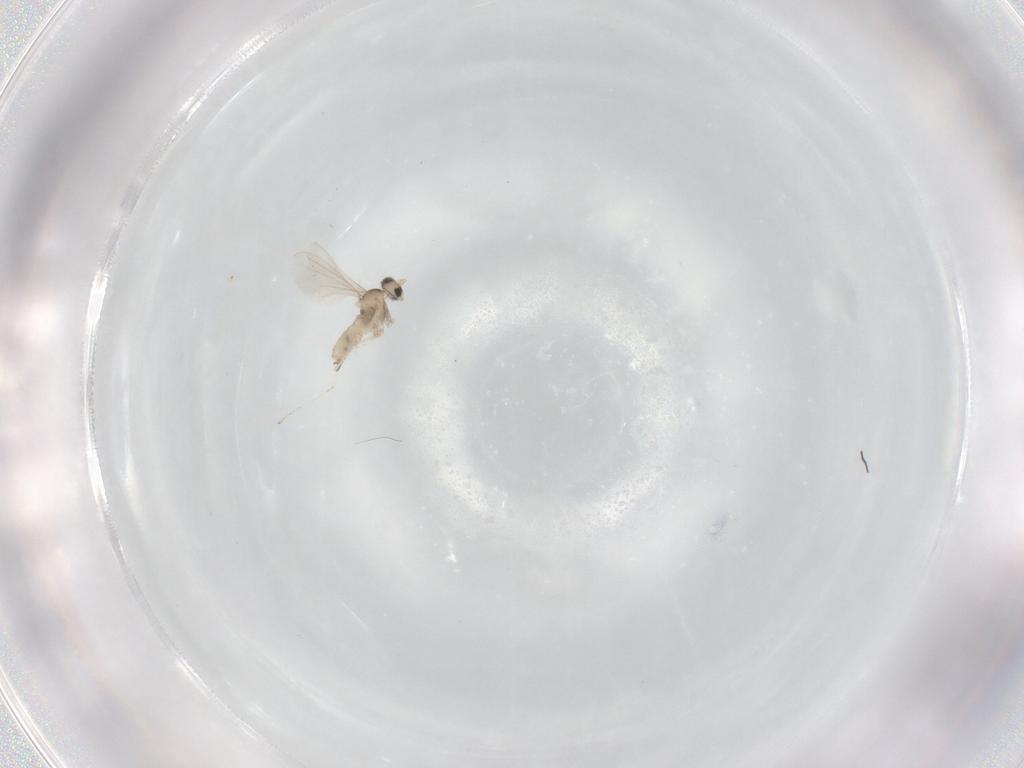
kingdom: Animalia
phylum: Arthropoda
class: Insecta
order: Diptera
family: Cecidomyiidae
